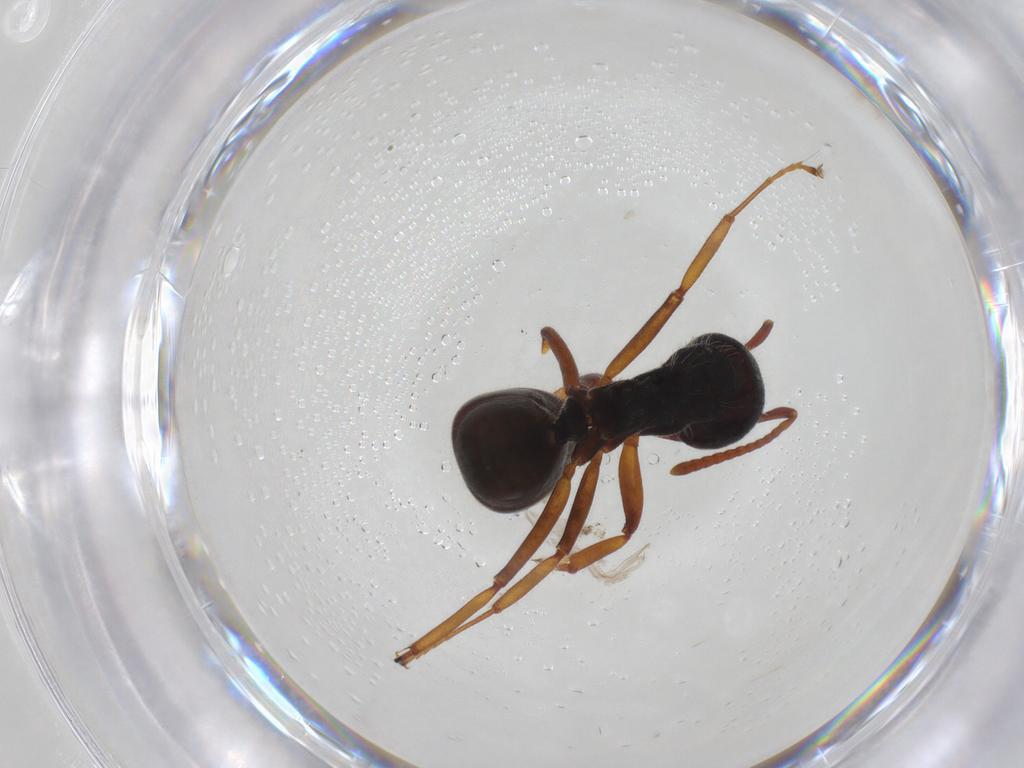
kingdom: Animalia
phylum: Arthropoda
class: Insecta
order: Hymenoptera
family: Formicidae
